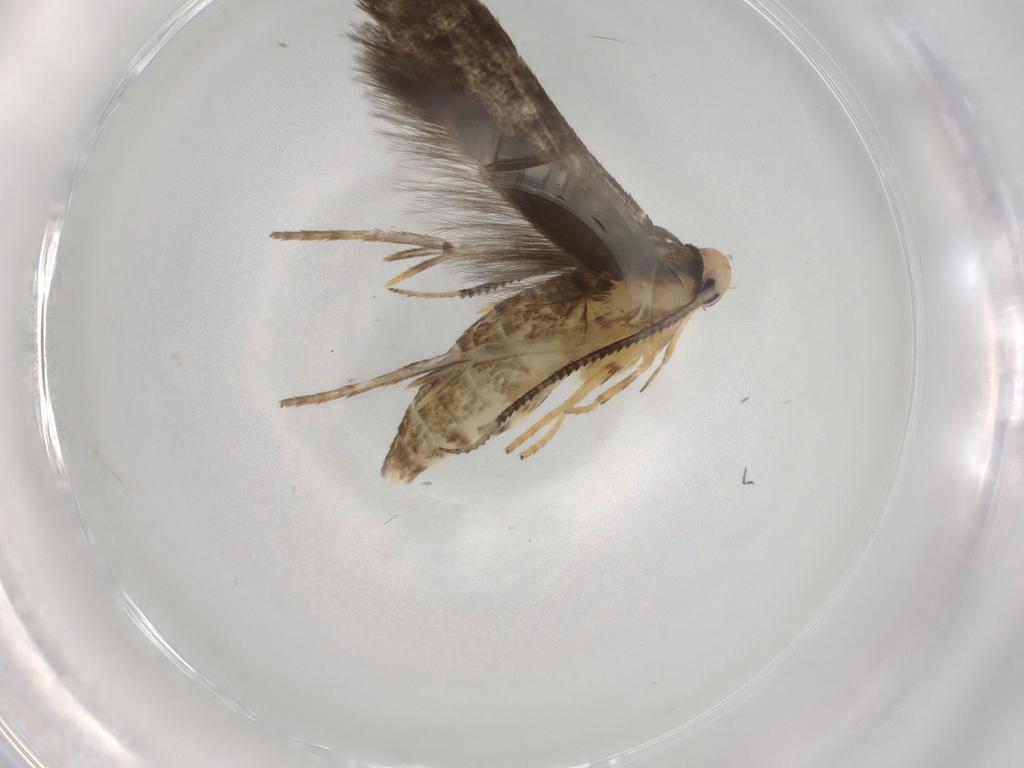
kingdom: Animalia
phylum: Arthropoda
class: Insecta
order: Lepidoptera
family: Stathmopodidae
